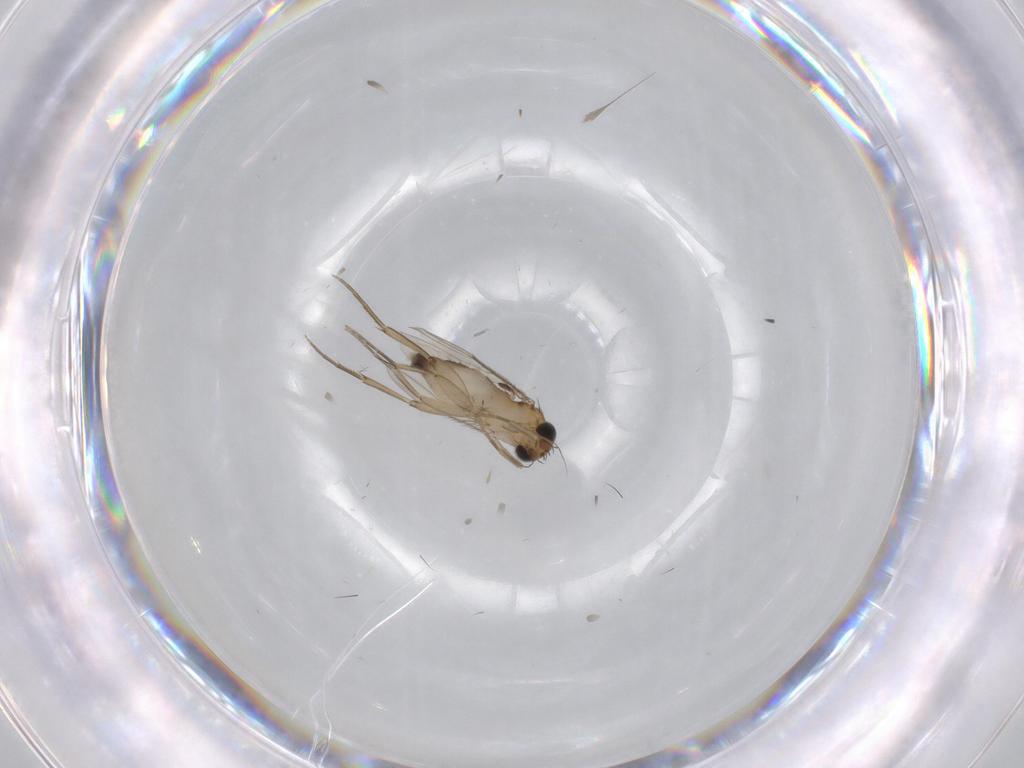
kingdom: Animalia
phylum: Arthropoda
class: Insecta
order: Diptera
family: Phoridae
